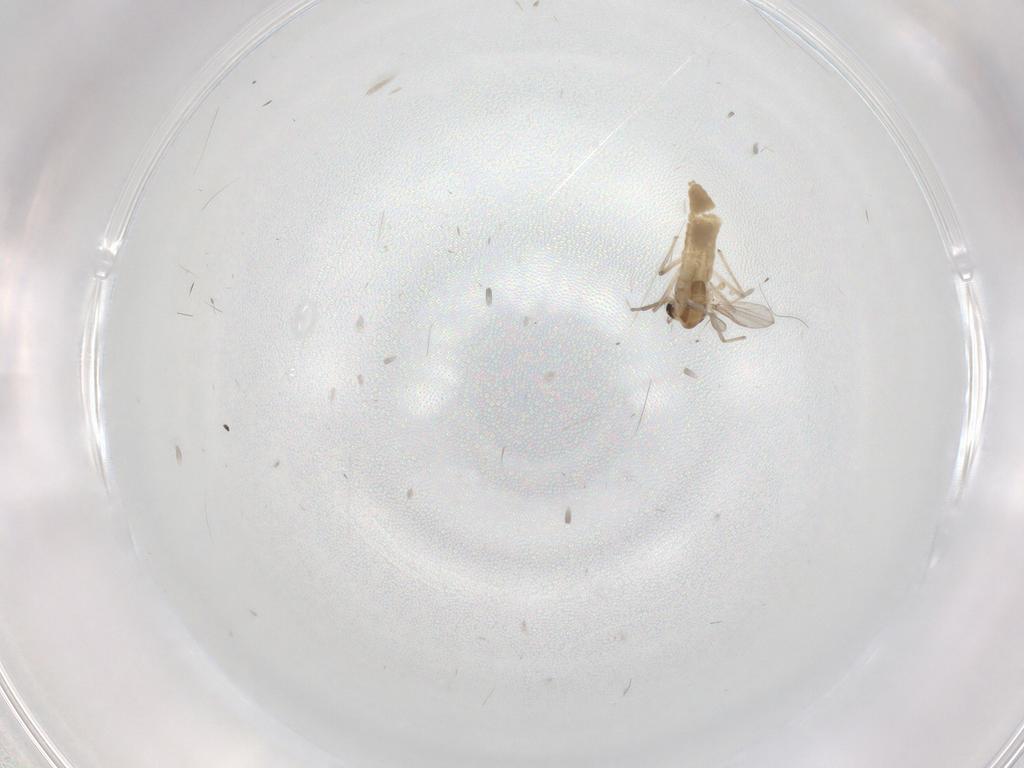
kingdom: Animalia
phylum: Arthropoda
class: Insecta
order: Diptera
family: Chironomidae
